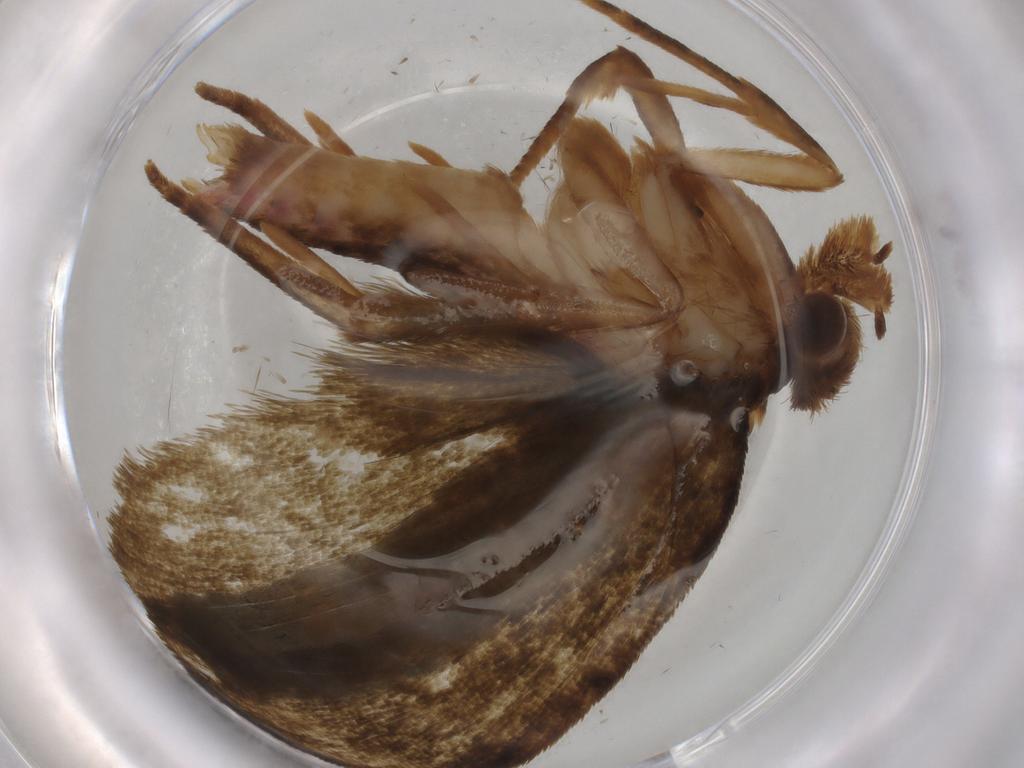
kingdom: Animalia
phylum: Arthropoda
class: Insecta
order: Lepidoptera
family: Geometridae
